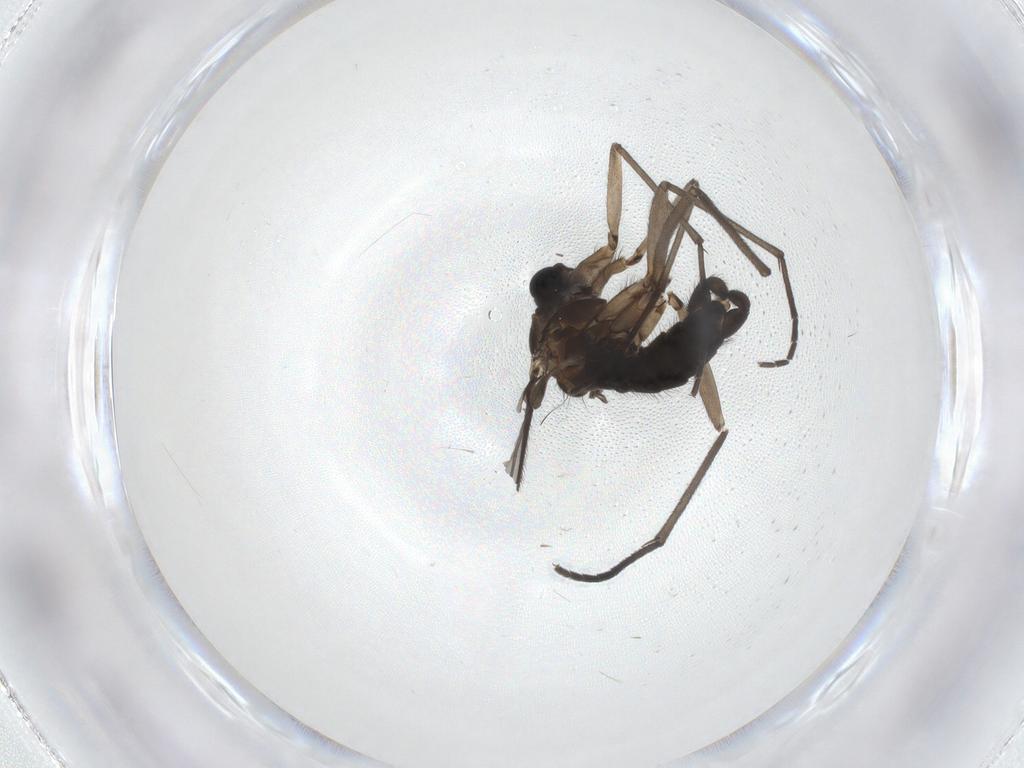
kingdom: Animalia
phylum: Arthropoda
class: Insecta
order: Diptera
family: Sciaridae
